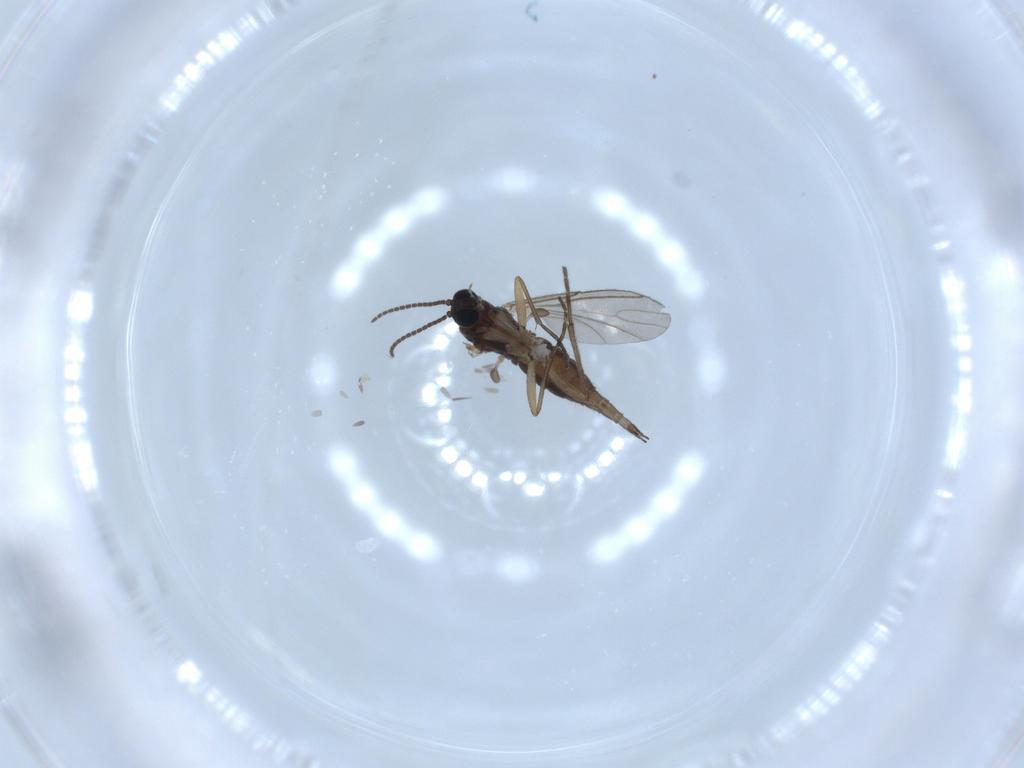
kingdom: Animalia
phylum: Arthropoda
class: Insecta
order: Diptera
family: Sciaridae
